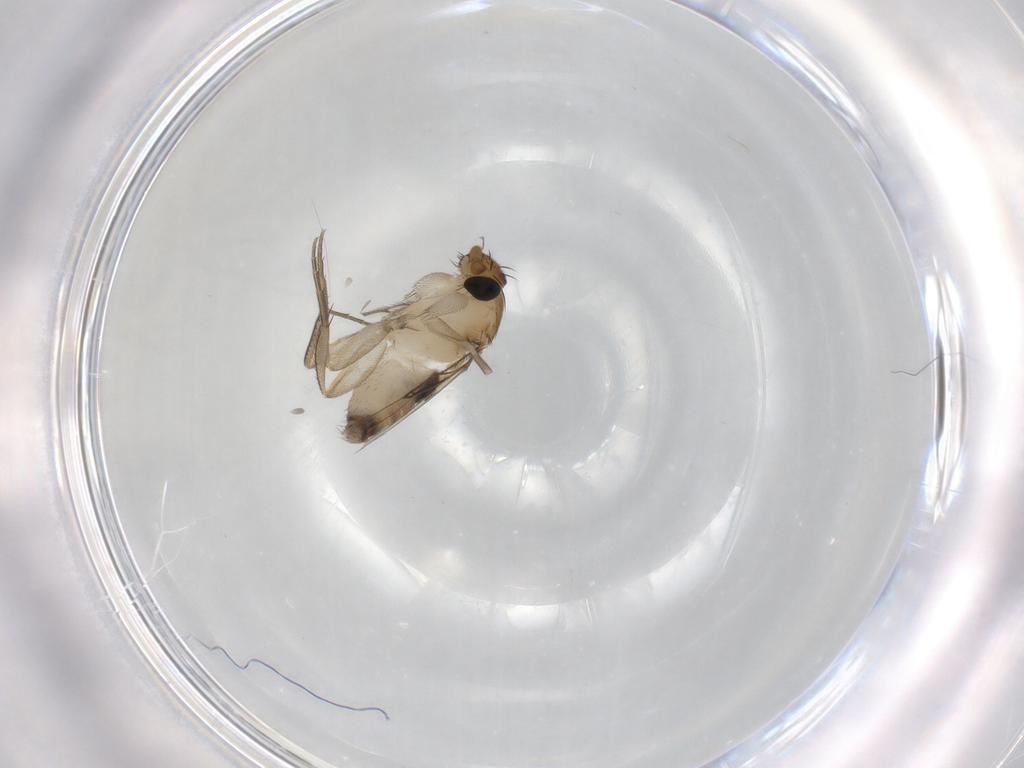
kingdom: Animalia
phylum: Arthropoda
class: Insecta
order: Diptera
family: Phoridae
